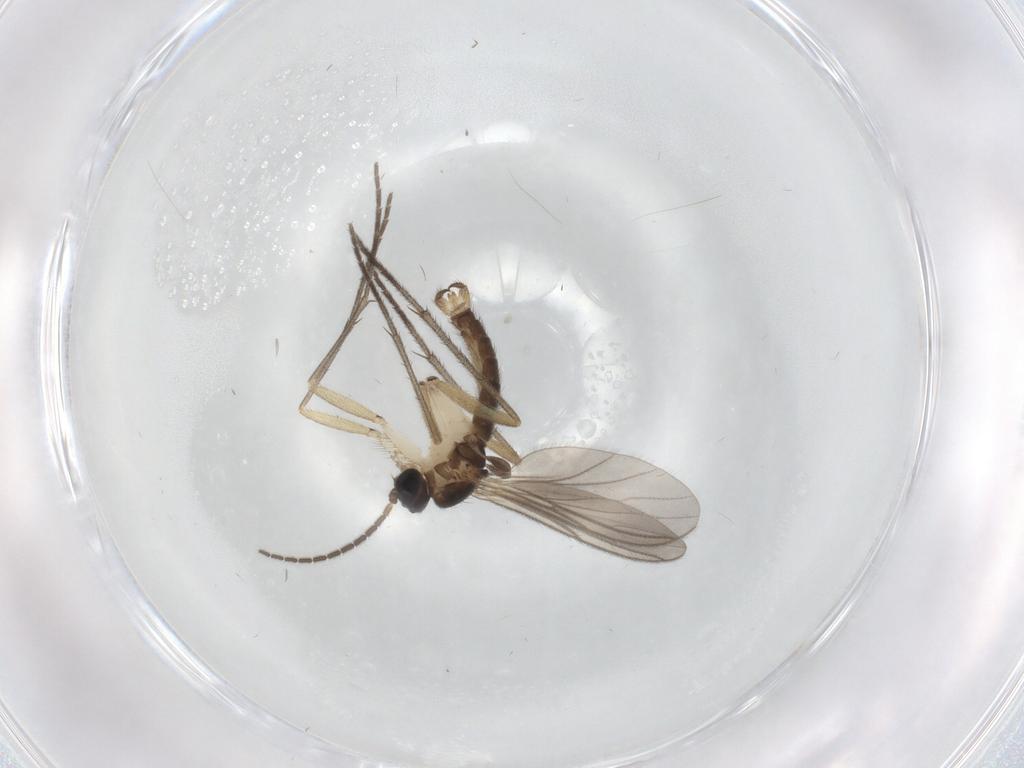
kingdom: Animalia
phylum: Arthropoda
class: Insecta
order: Diptera
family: Sciaridae
